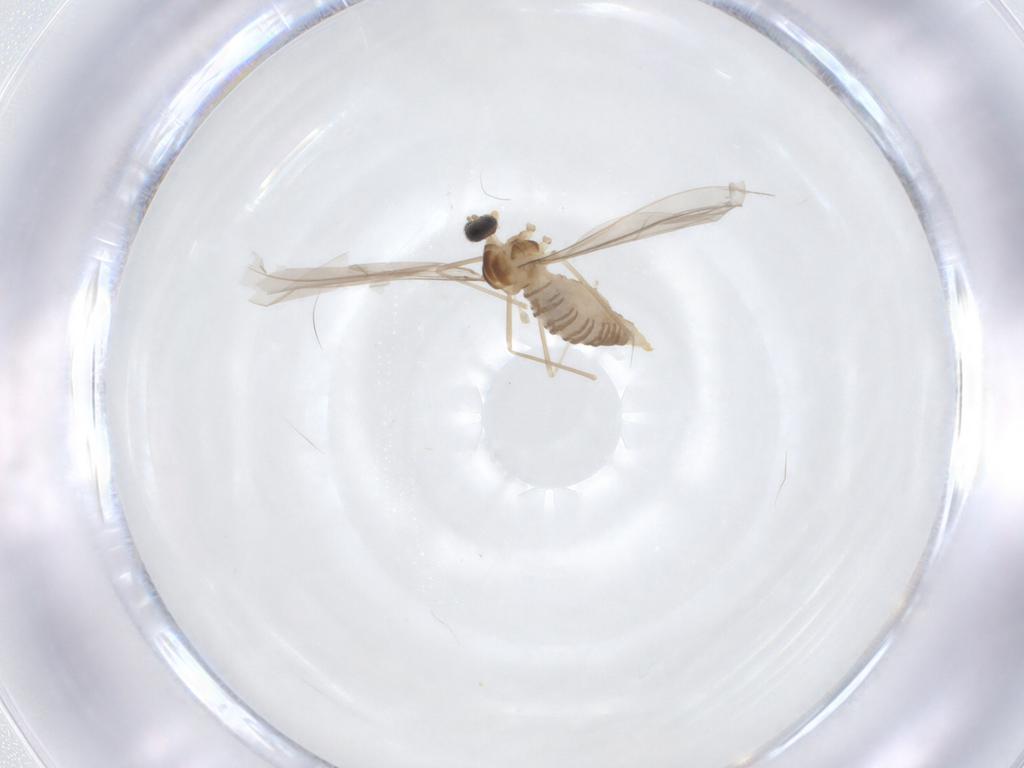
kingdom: Animalia
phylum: Arthropoda
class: Insecta
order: Diptera
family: Cecidomyiidae
